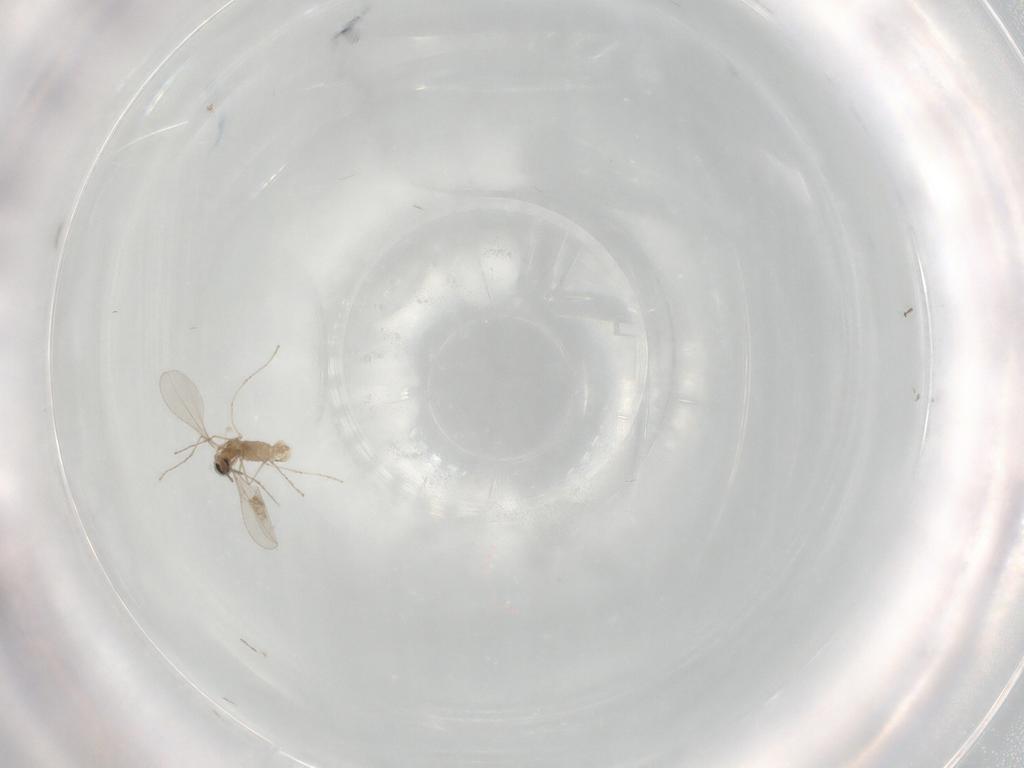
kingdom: Animalia
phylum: Arthropoda
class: Insecta
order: Diptera
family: Cecidomyiidae
